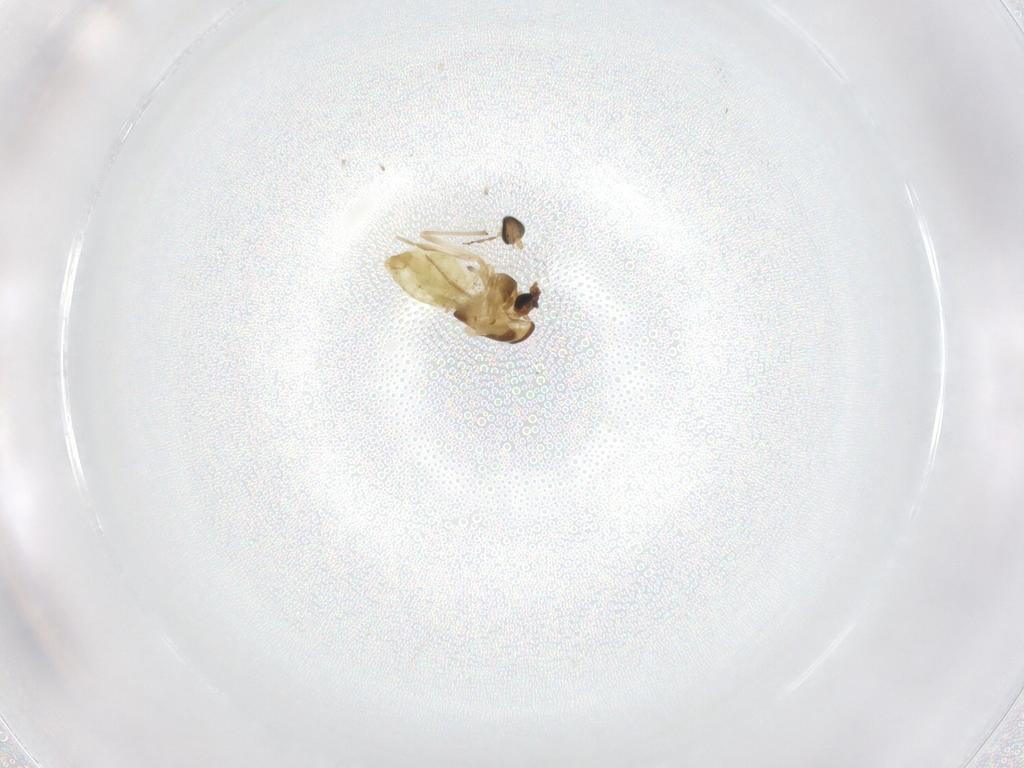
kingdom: Animalia
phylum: Arthropoda
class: Insecta
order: Diptera
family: Chironomidae
